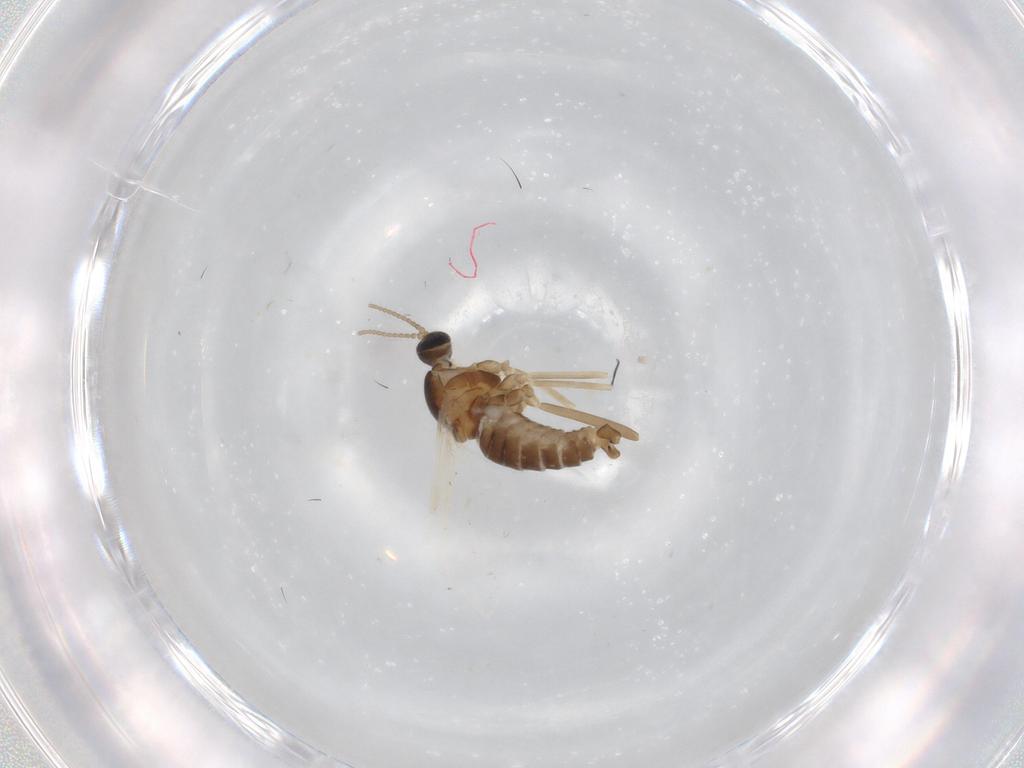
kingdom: Animalia
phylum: Arthropoda
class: Insecta
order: Diptera
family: Cecidomyiidae
